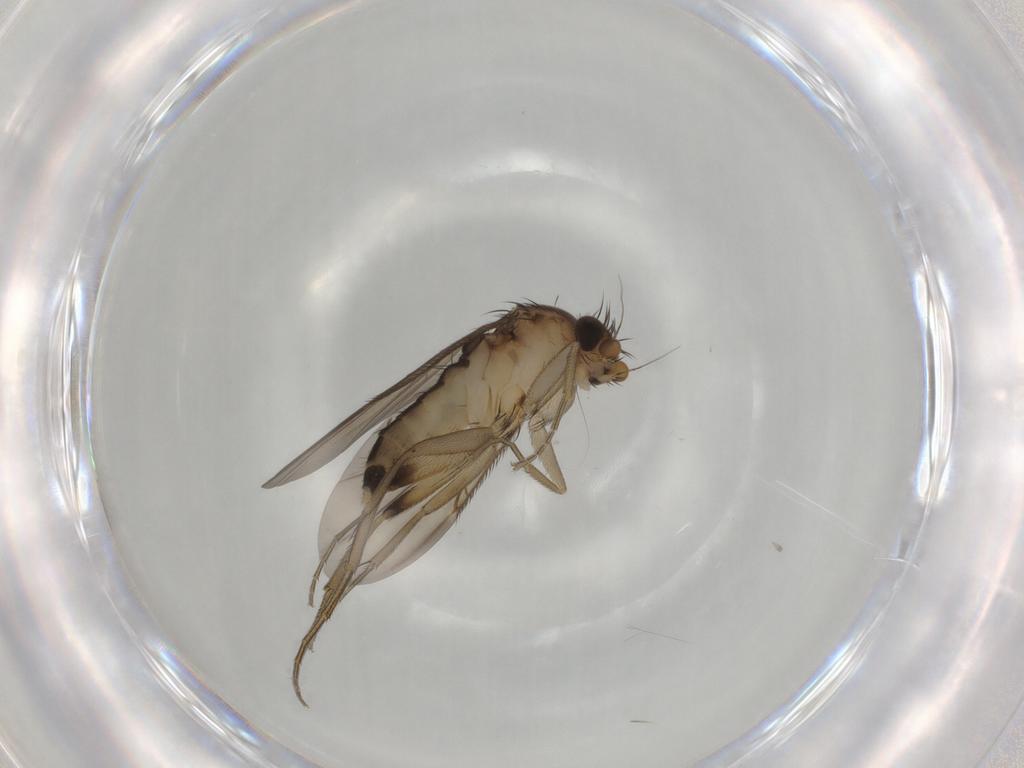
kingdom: Animalia
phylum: Arthropoda
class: Insecta
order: Diptera
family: Phoridae
